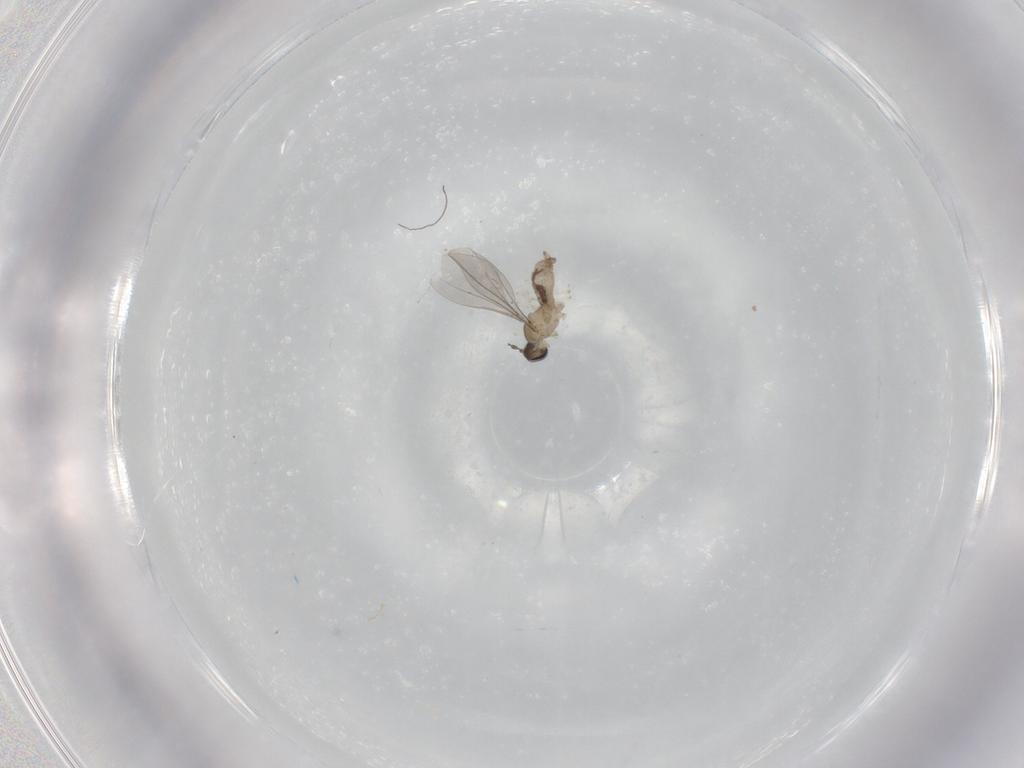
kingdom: Animalia
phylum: Arthropoda
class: Insecta
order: Diptera
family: Cecidomyiidae
